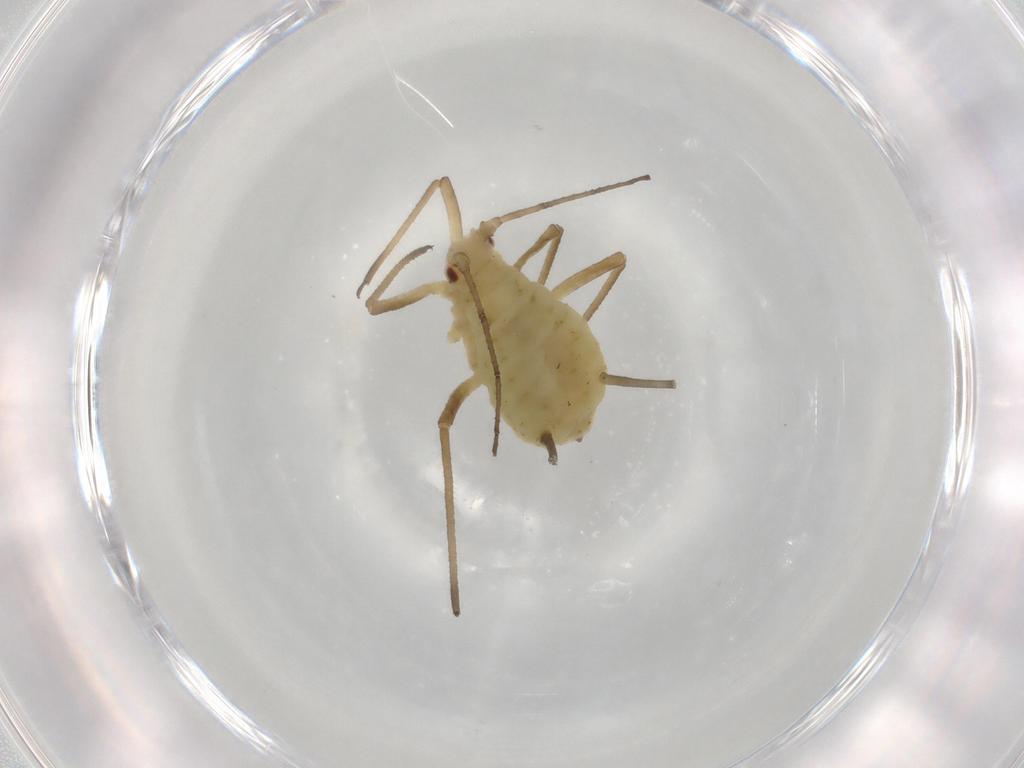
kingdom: Animalia
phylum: Arthropoda
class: Insecta
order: Hemiptera
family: Aphididae
